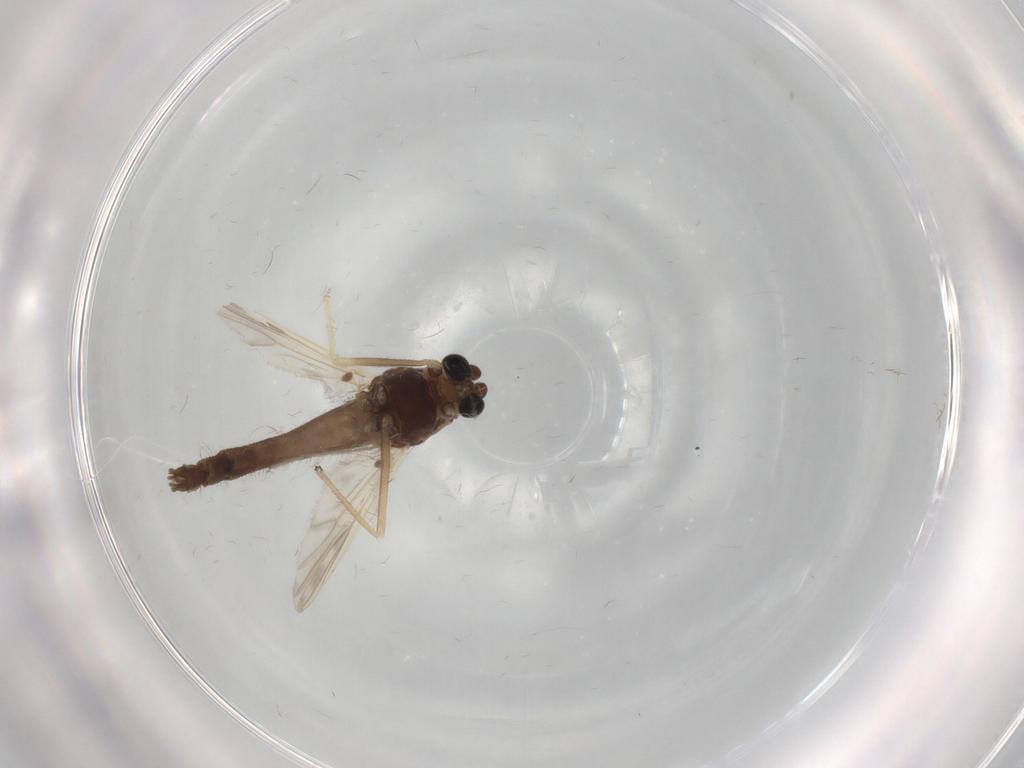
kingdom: Animalia
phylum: Arthropoda
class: Insecta
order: Diptera
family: Chironomidae
